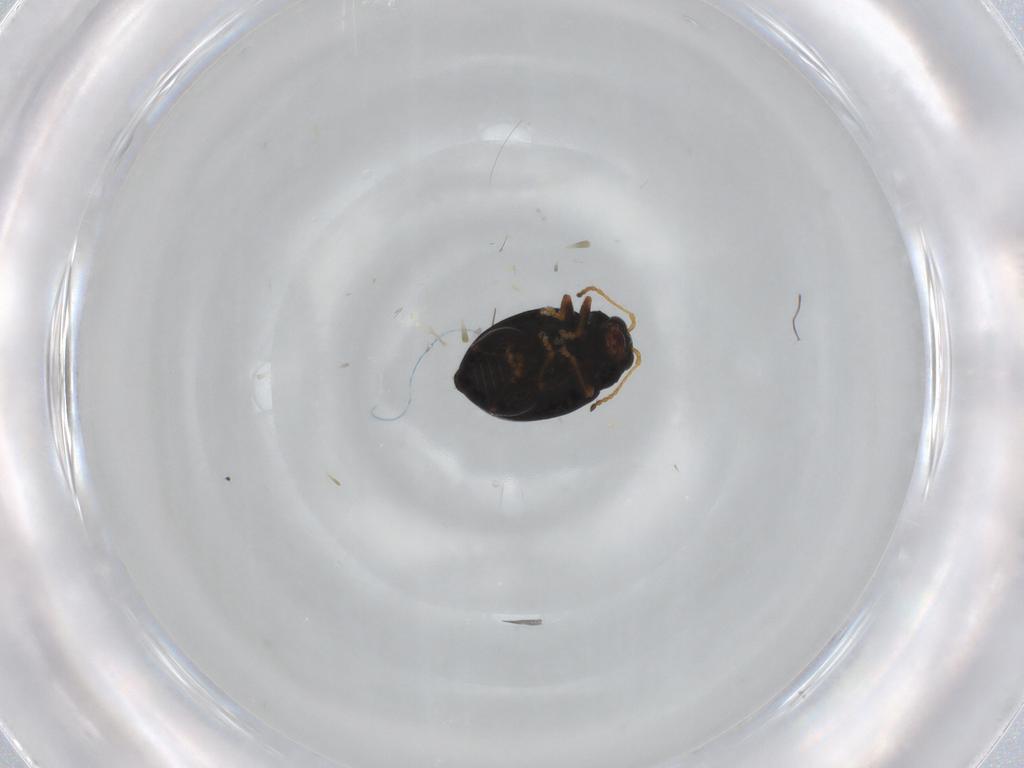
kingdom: Animalia
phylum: Arthropoda
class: Insecta
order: Coleoptera
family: Chrysomelidae
